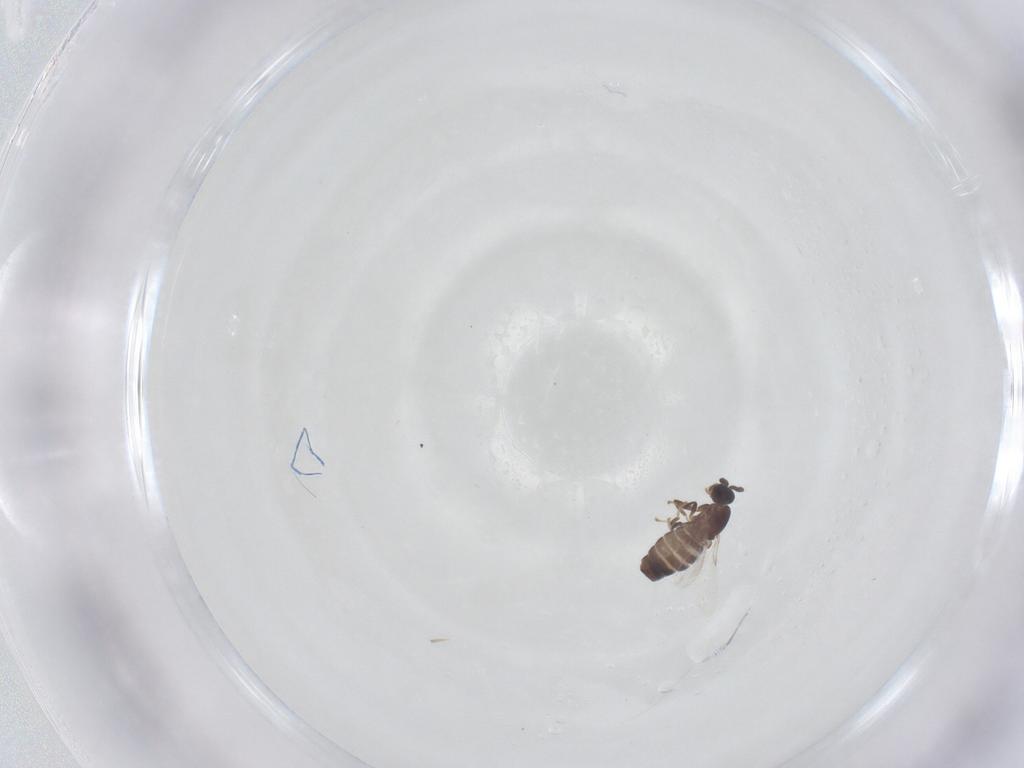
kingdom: Animalia
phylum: Arthropoda
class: Insecta
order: Diptera
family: Scatopsidae
